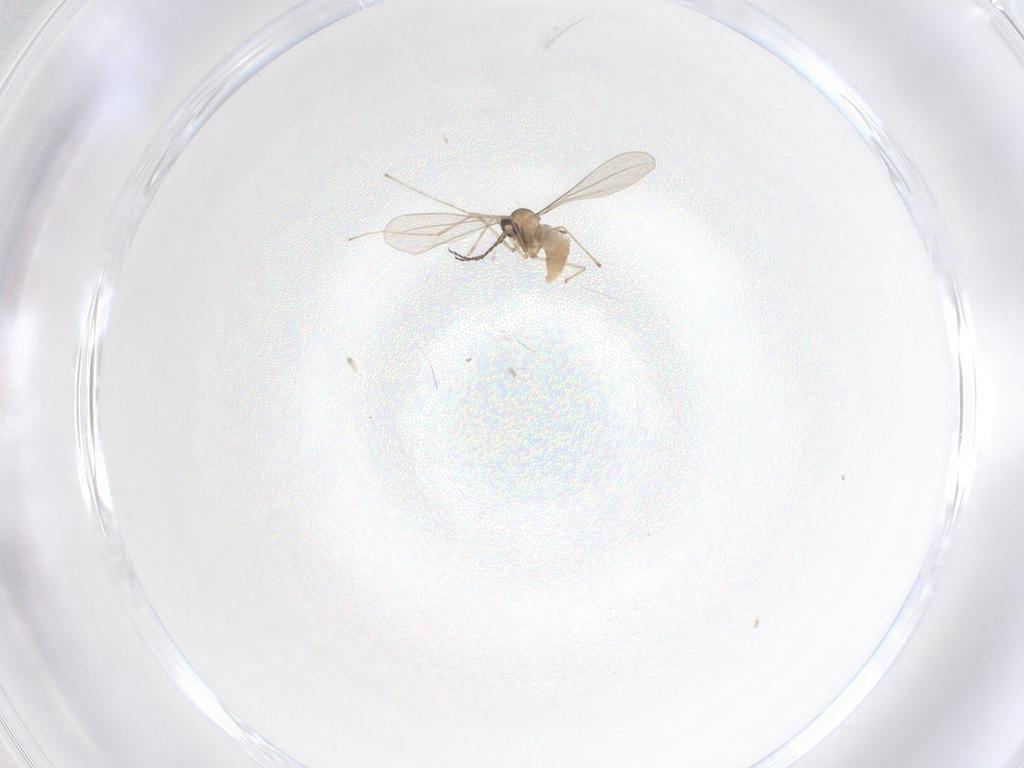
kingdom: Animalia
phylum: Arthropoda
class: Insecta
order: Diptera
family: Cecidomyiidae
